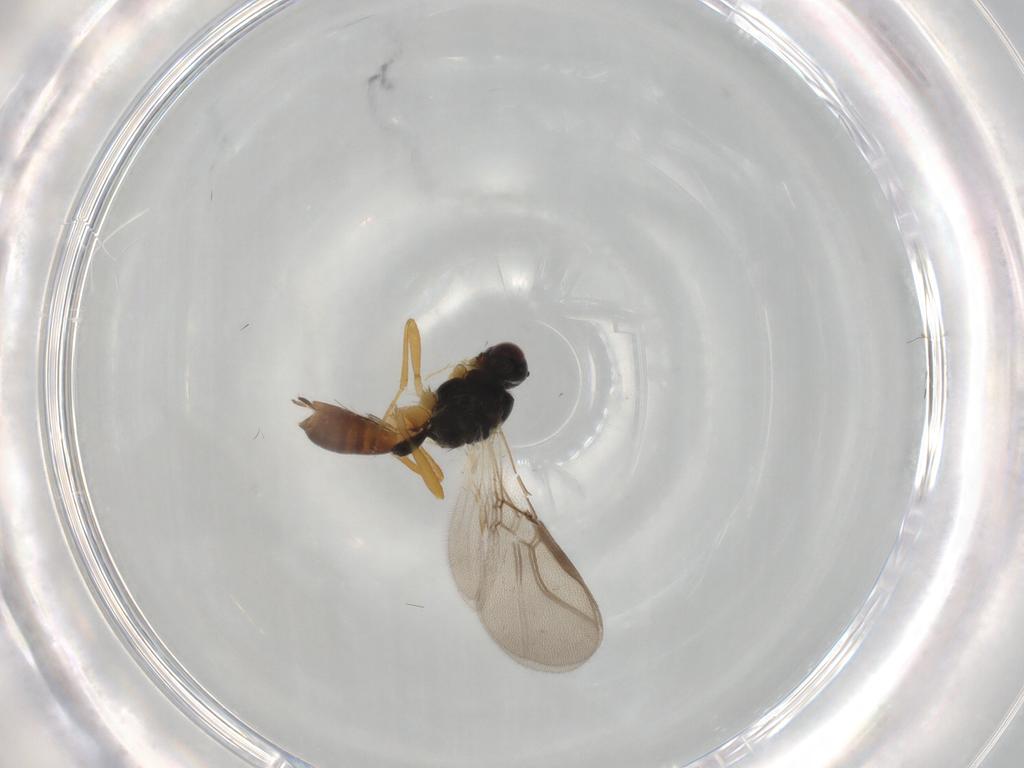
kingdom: Animalia
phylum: Arthropoda
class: Insecta
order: Hymenoptera
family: Braconidae
